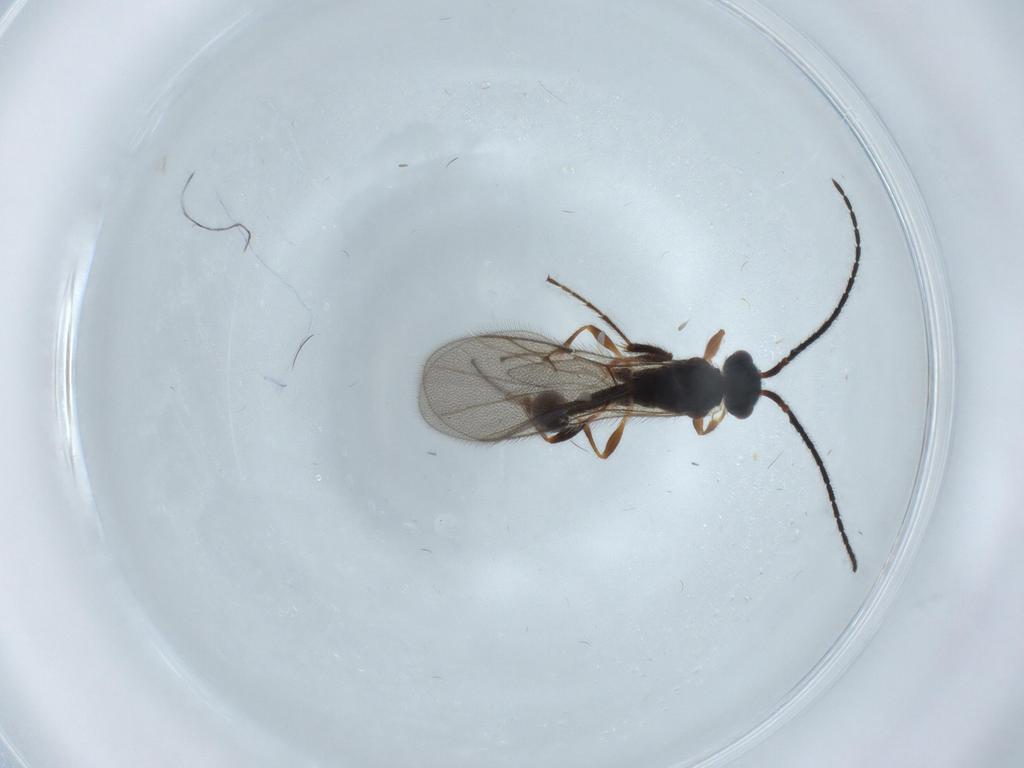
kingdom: Animalia
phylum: Arthropoda
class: Insecta
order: Hymenoptera
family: Diapriidae
